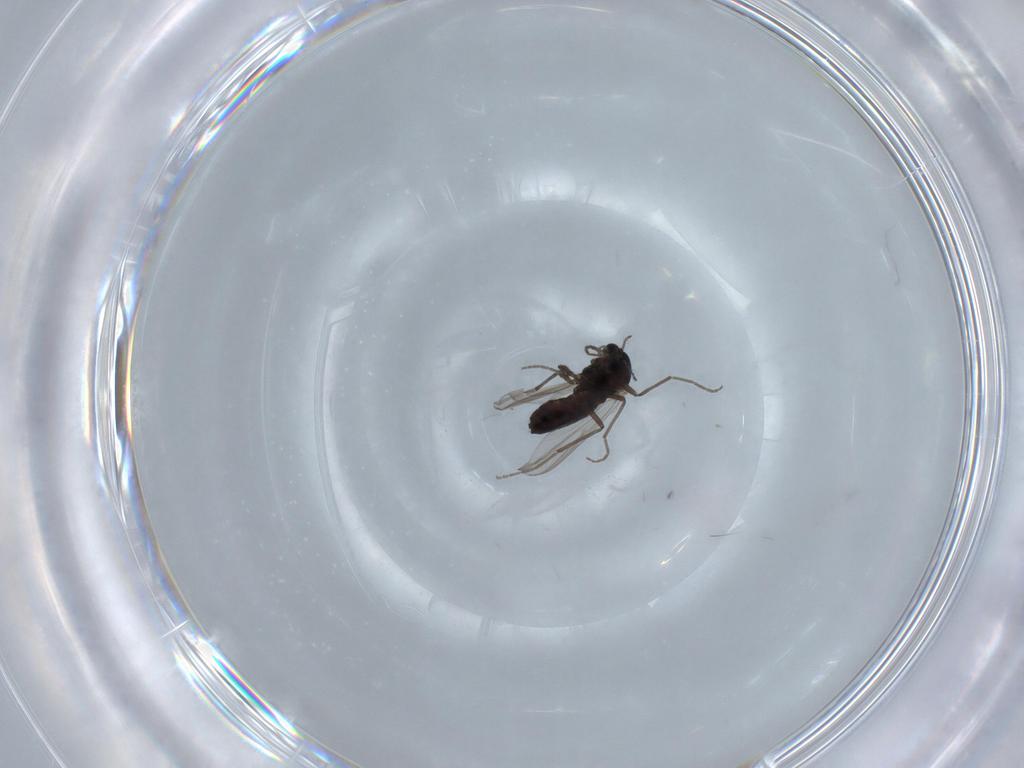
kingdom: Animalia
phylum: Arthropoda
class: Insecta
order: Diptera
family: Chironomidae
